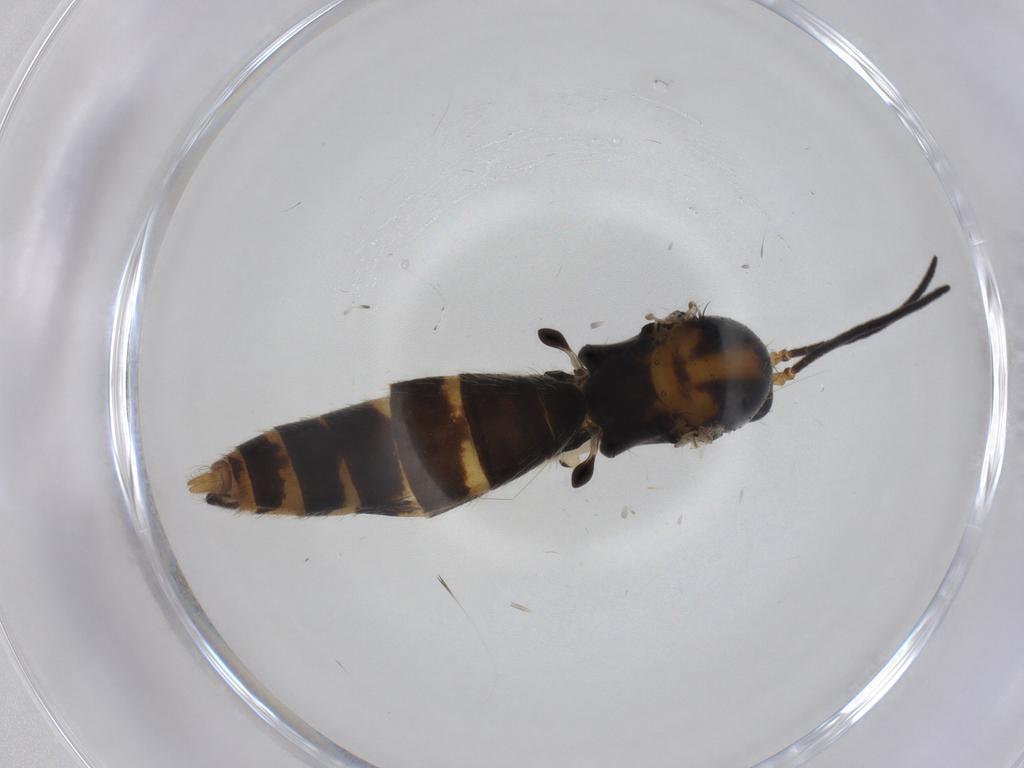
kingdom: Animalia
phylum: Arthropoda
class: Insecta
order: Diptera
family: Mycetophilidae
